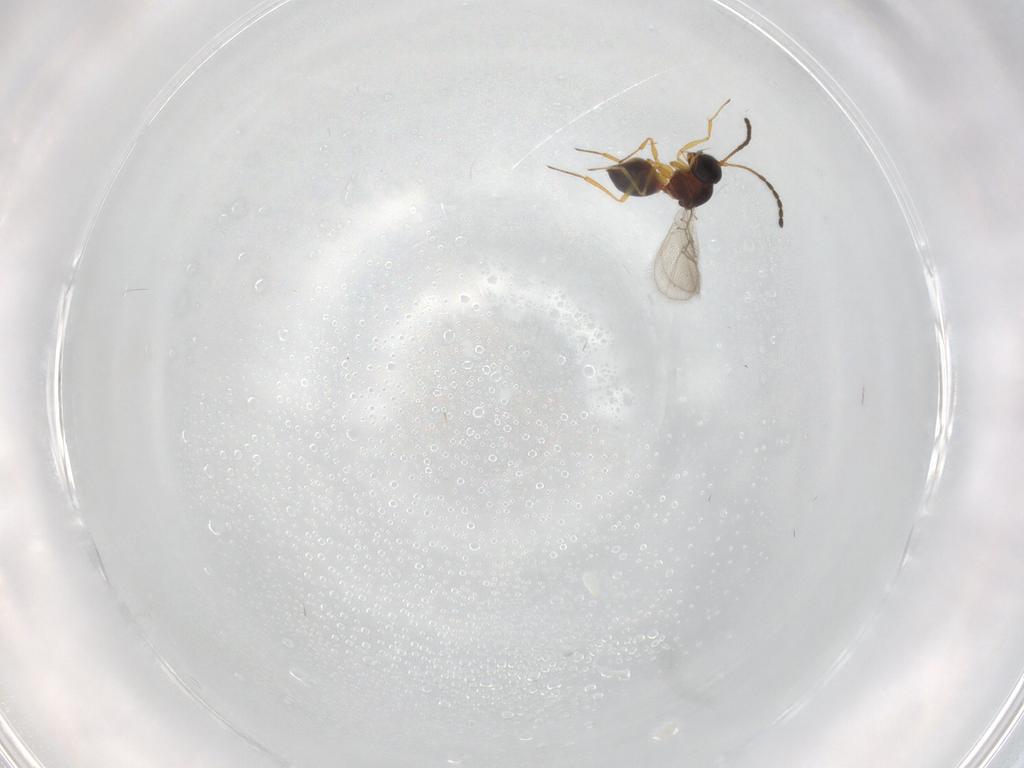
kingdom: Animalia
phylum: Arthropoda
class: Insecta
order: Hymenoptera
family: Figitidae
